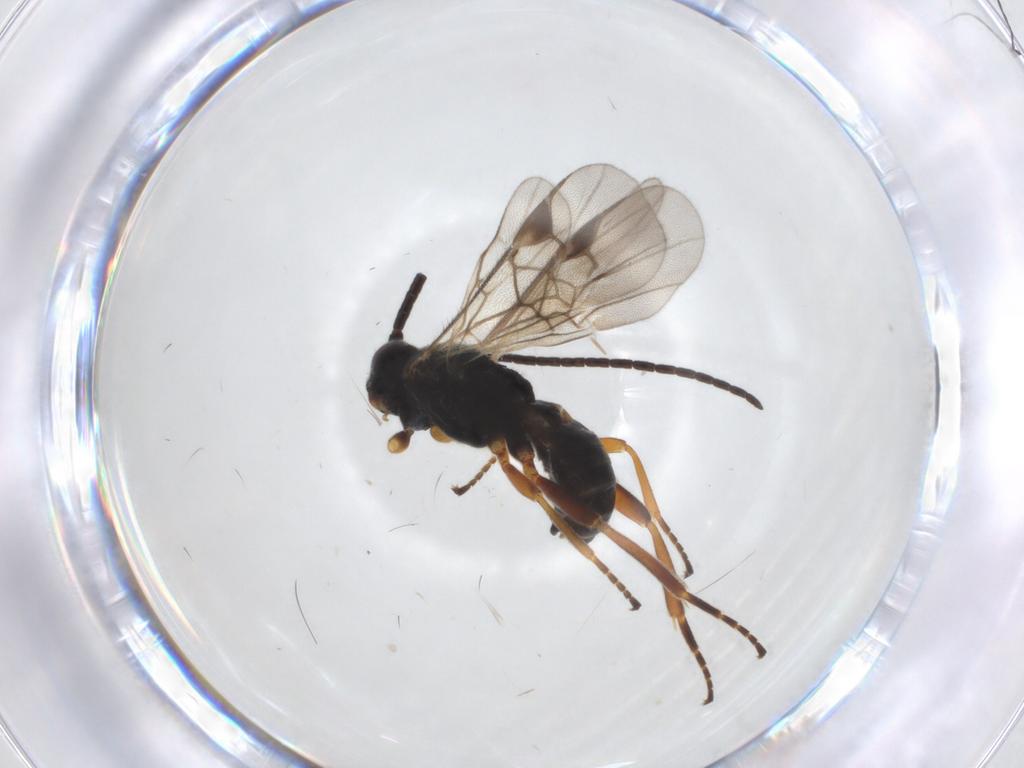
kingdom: Animalia
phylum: Arthropoda
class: Insecta
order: Hymenoptera
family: Braconidae
